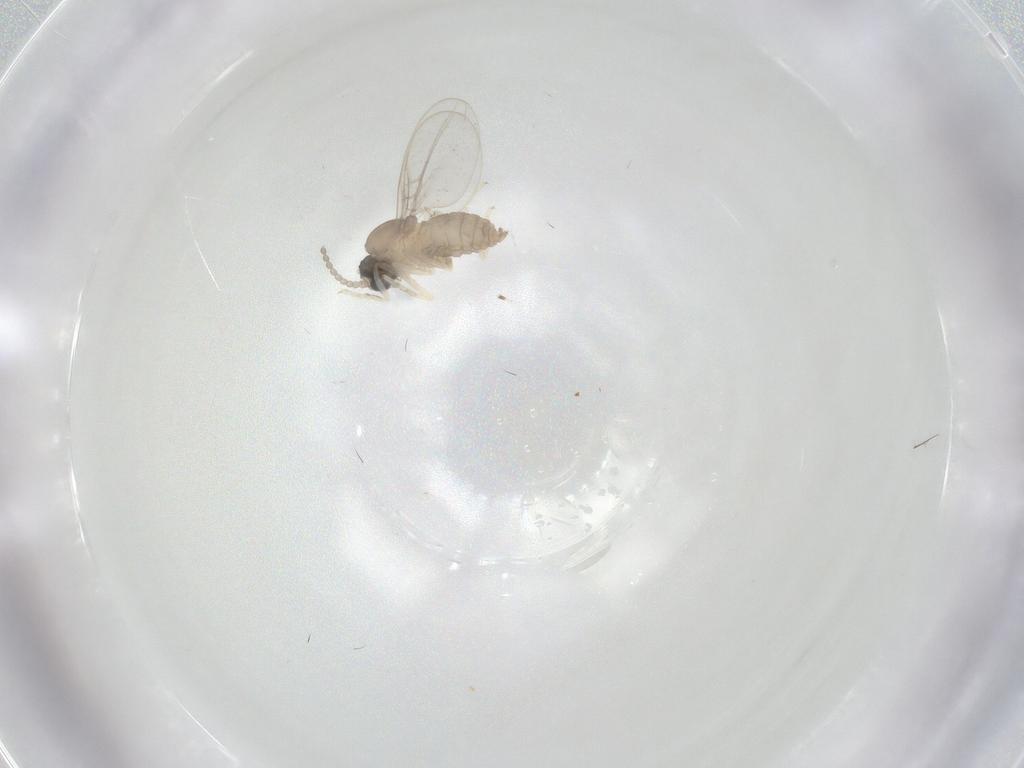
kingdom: Animalia
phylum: Arthropoda
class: Insecta
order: Diptera
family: Cecidomyiidae
